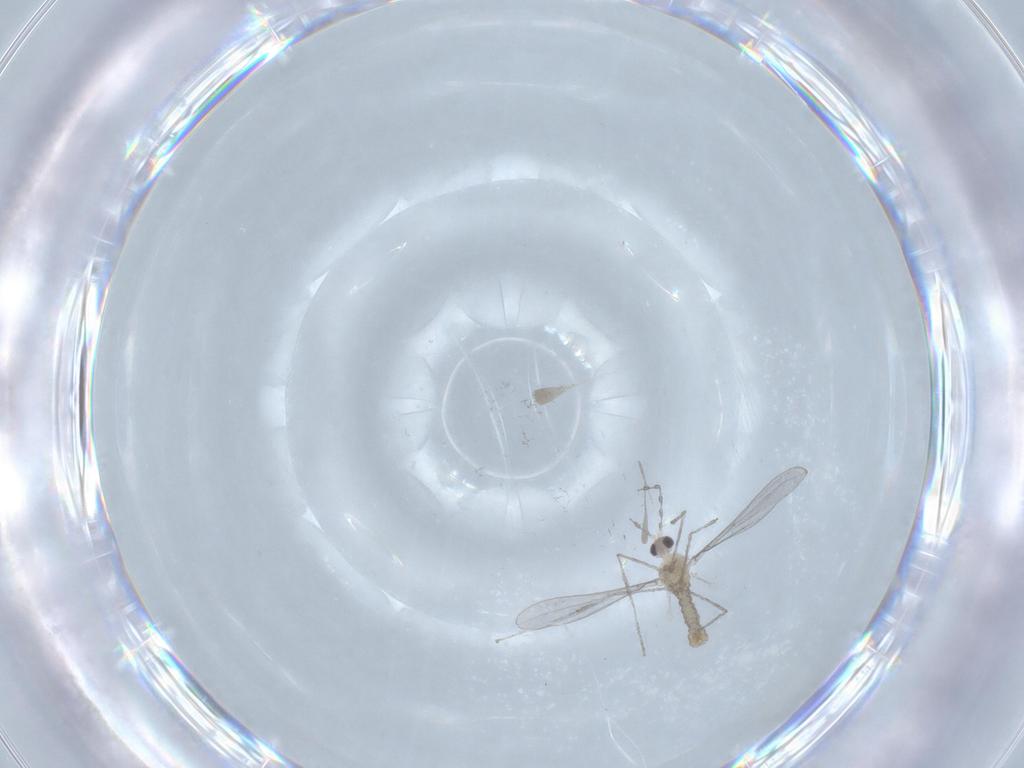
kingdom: Animalia
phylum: Arthropoda
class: Insecta
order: Diptera
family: Cecidomyiidae
